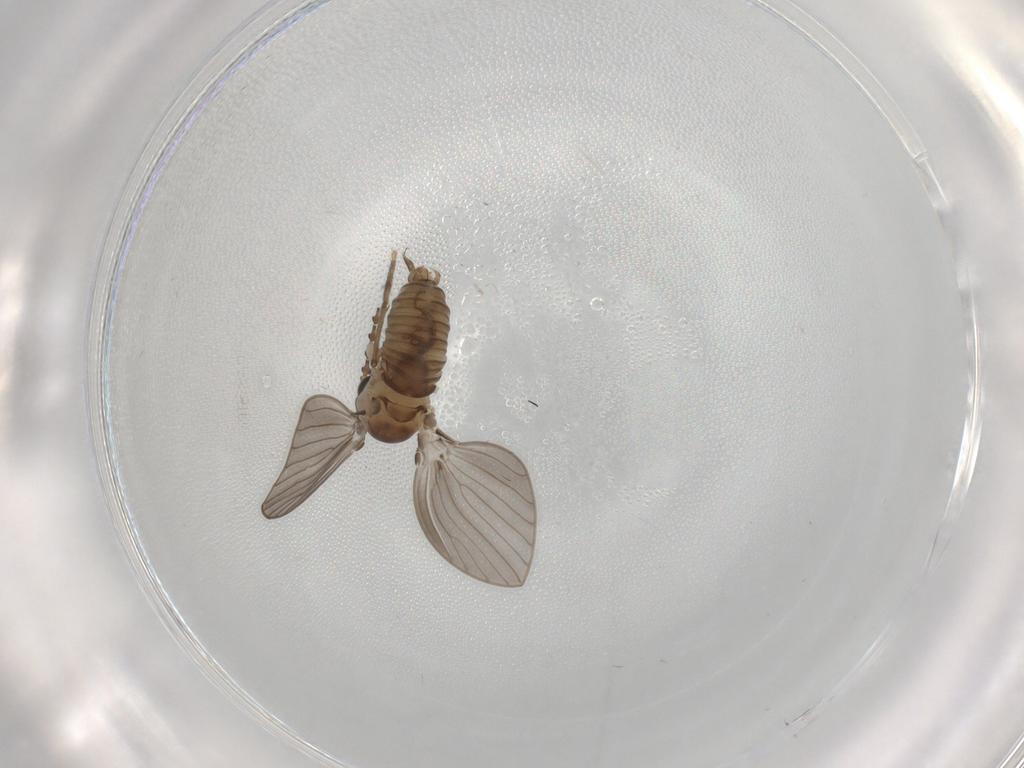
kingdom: Animalia
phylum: Arthropoda
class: Insecta
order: Diptera
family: Psychodidae
